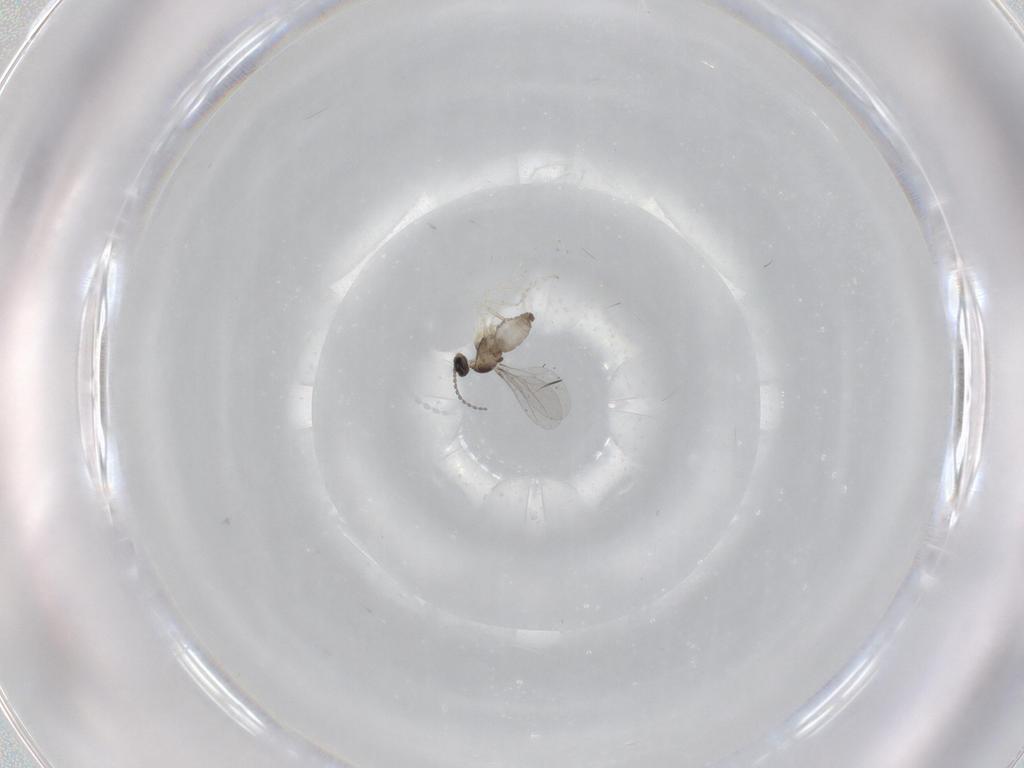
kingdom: Animalia
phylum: Arthropoda
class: Insecta
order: Diptera
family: Cecidomyiidae
